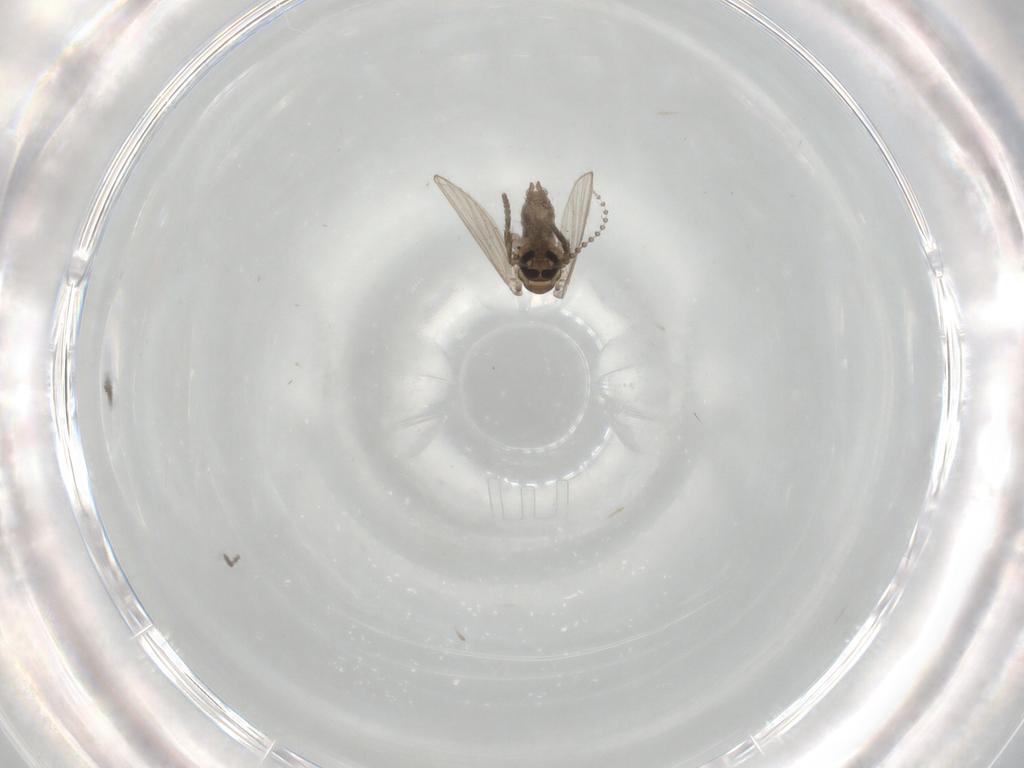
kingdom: Animalia
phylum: Arthropoda
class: Insecta
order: Diptera
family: Psychodidae
